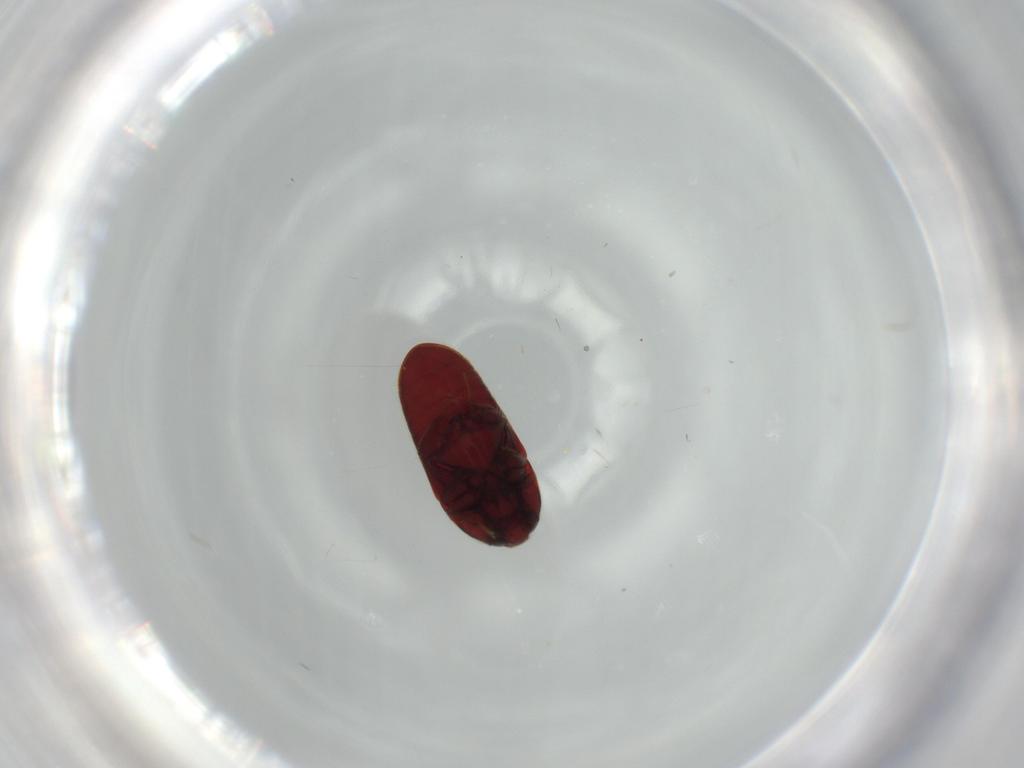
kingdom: Animalia
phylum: Arthropoda
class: Insecta
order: Coleoptera
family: Throscidae
